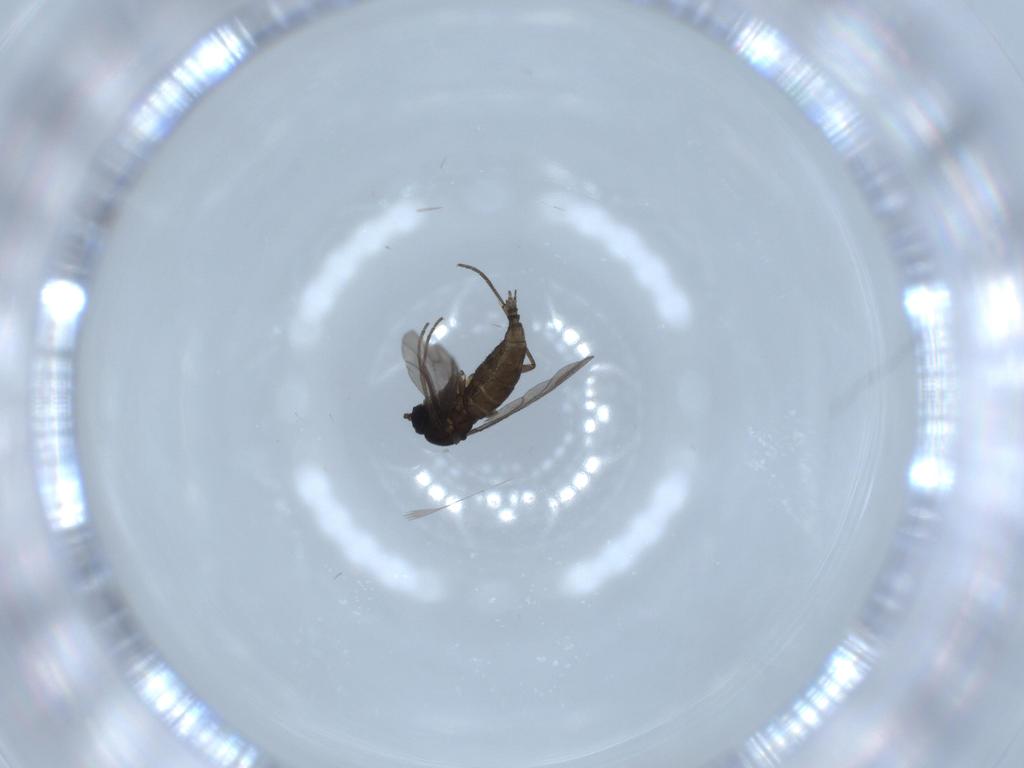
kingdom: Animalia
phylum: Arthropoda
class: Insecta
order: Diptera
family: Sciaridae
